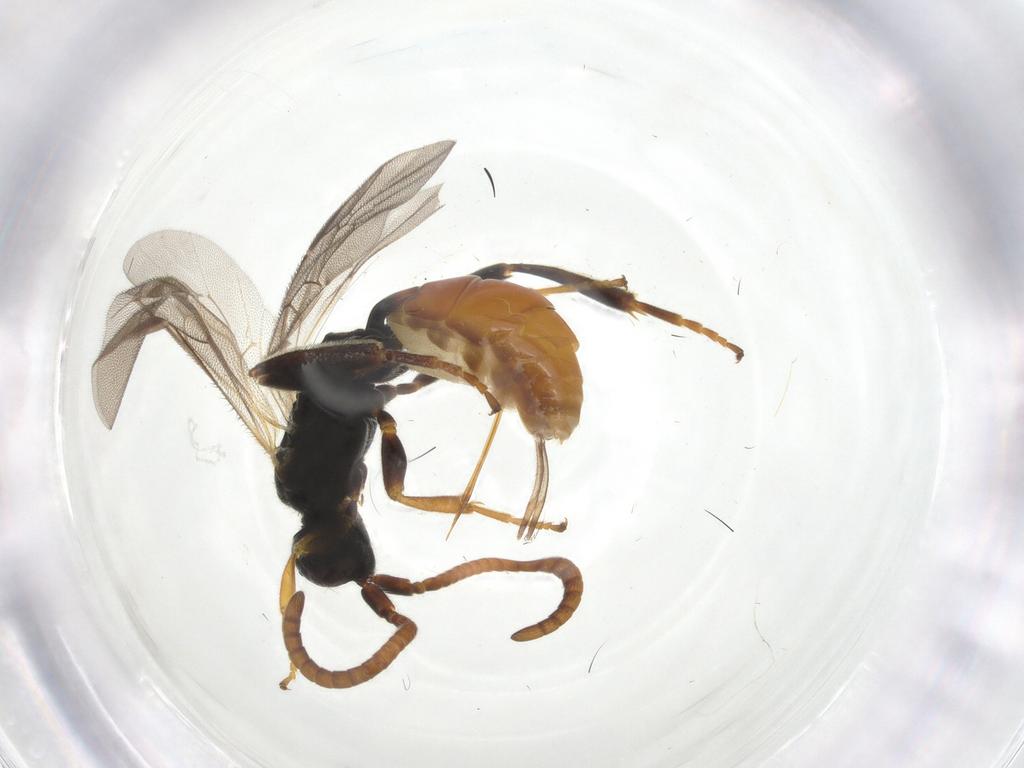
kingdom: Animalia
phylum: Arthropoda
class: Insecta
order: Hymenoptera
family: Ichneumonidae
